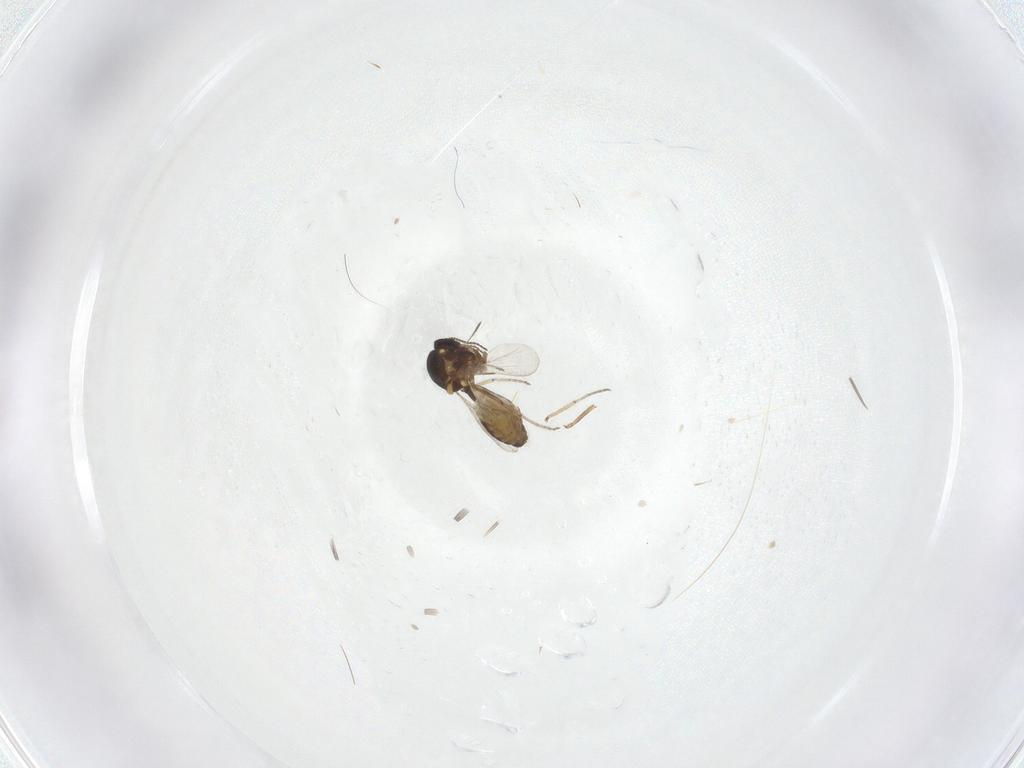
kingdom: Animalia
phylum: Arthropoda
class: Insecta
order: Diptera
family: Ceratopogonidae
